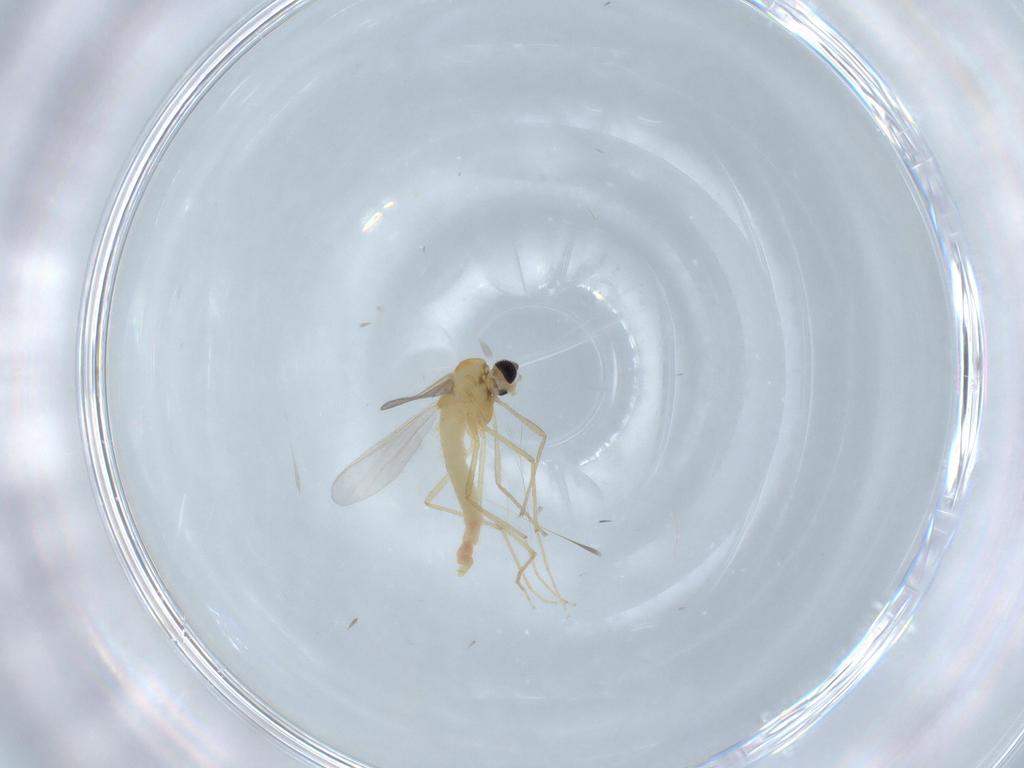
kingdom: Animalia
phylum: Arthropoda
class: Insecta
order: Diptera
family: Chironomidae
